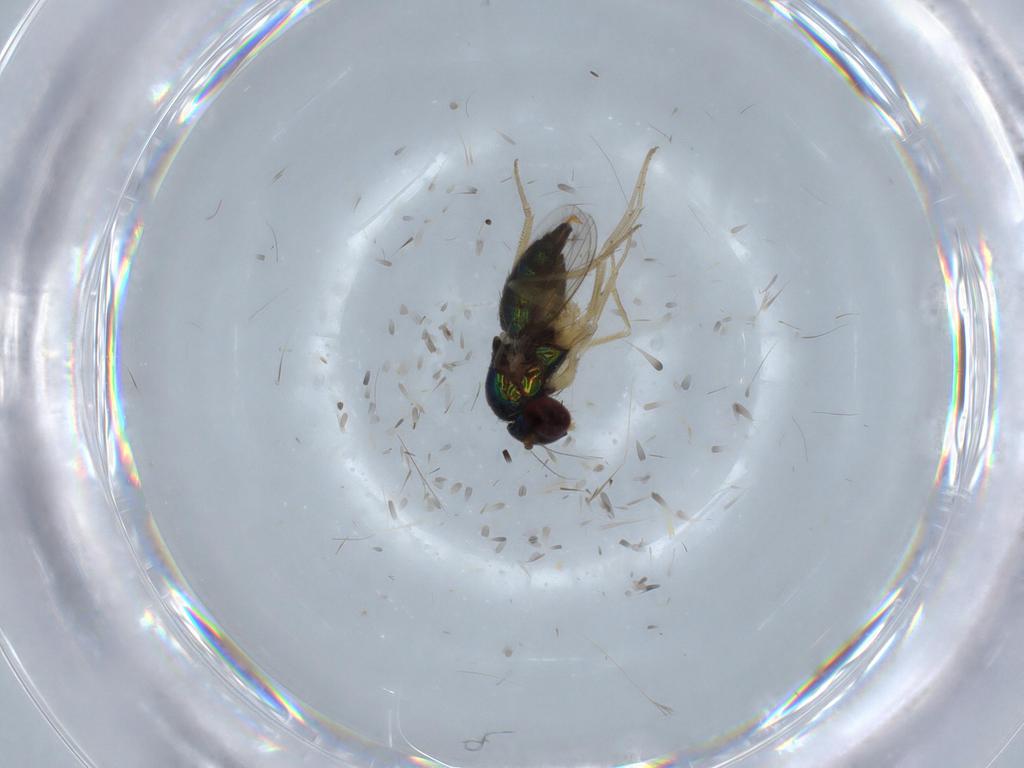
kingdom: Animalia
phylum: Arthropoda
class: Insecta
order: Diptera
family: Dolichopodidae
